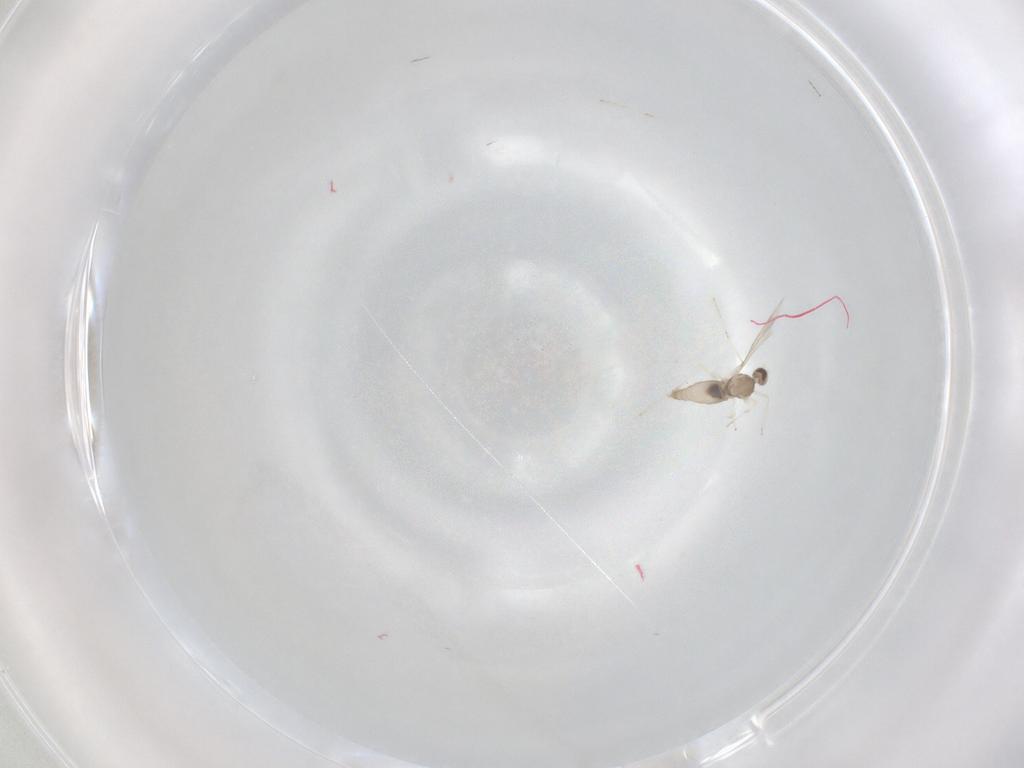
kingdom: Animalia
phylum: Arthropoda
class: Insecta
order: Diptera
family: Cecidomyiidae
